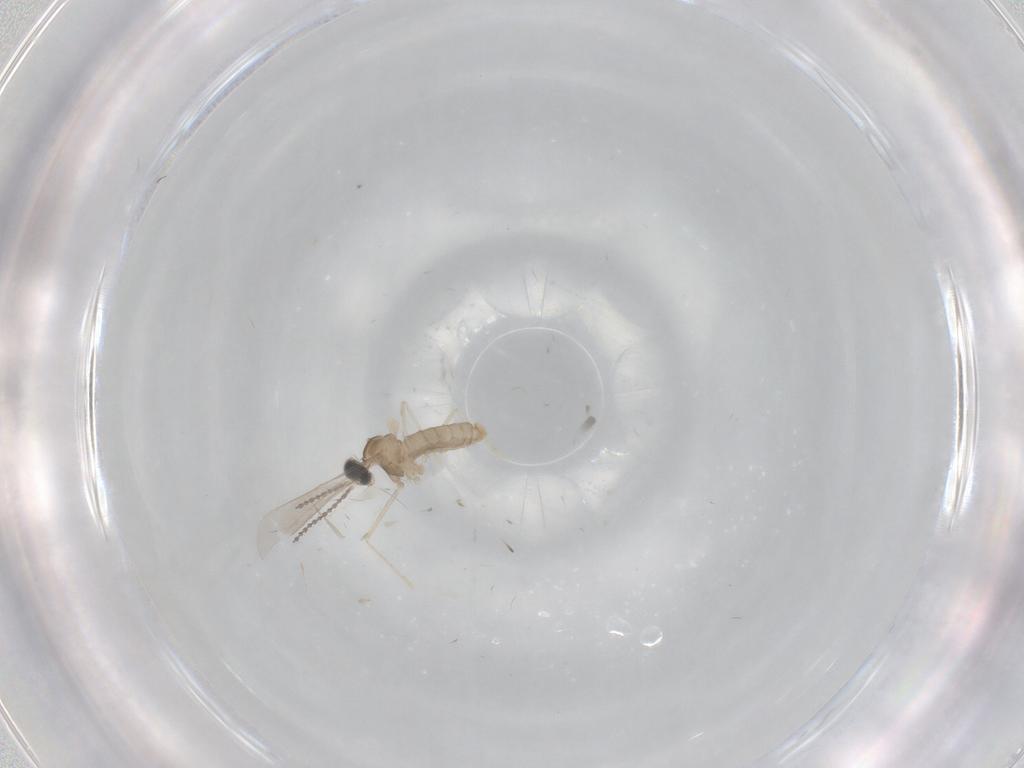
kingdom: Animalia
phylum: Arthropoda
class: Insecta
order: Diptera
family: Cecidomyiidae
